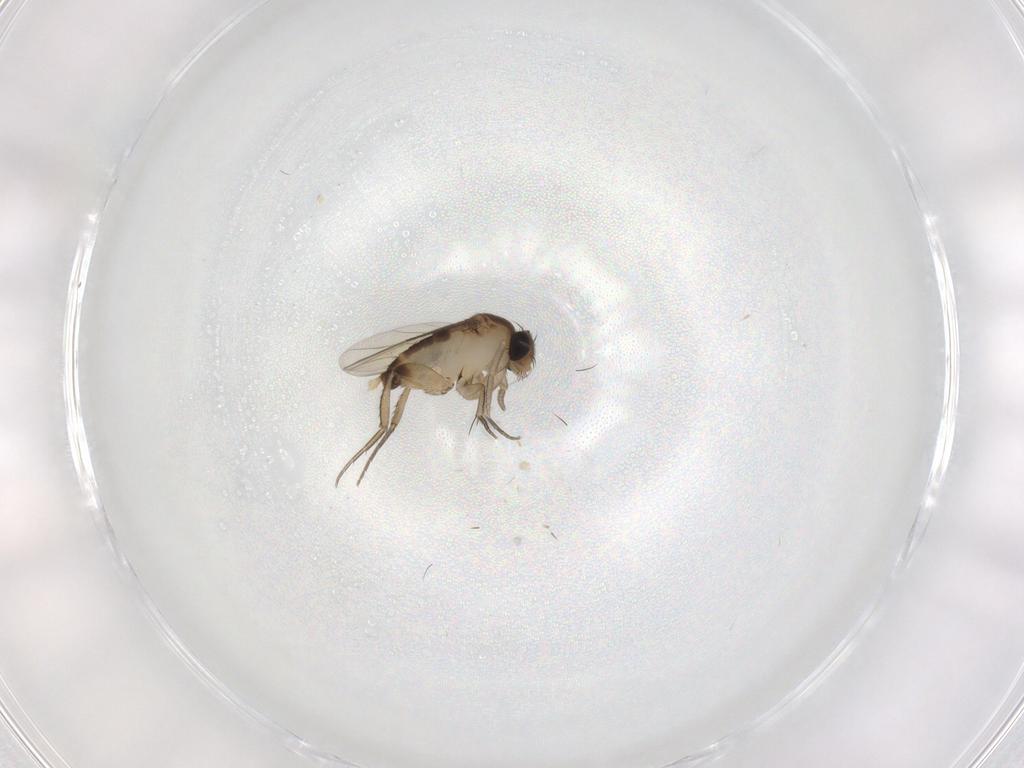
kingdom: Animalia
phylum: Arthropoda
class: Insecta
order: Diptera
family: Phoridae
